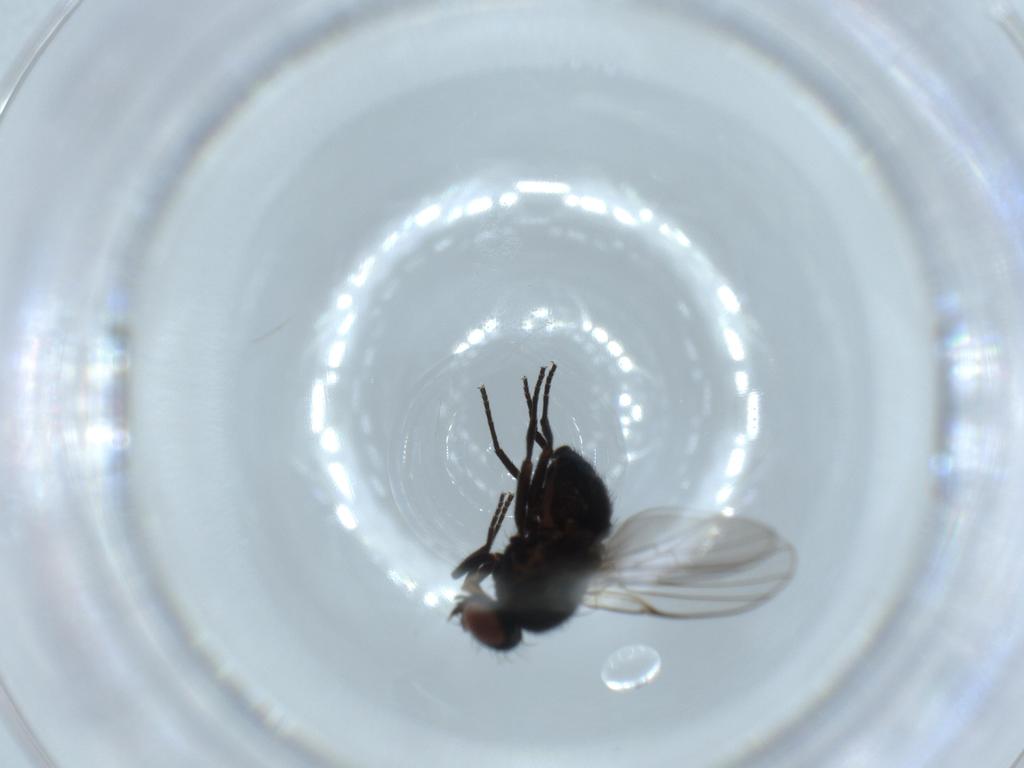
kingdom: Animalia
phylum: Arthropoda
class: Insecta
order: Diptera
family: Agromyzidae
